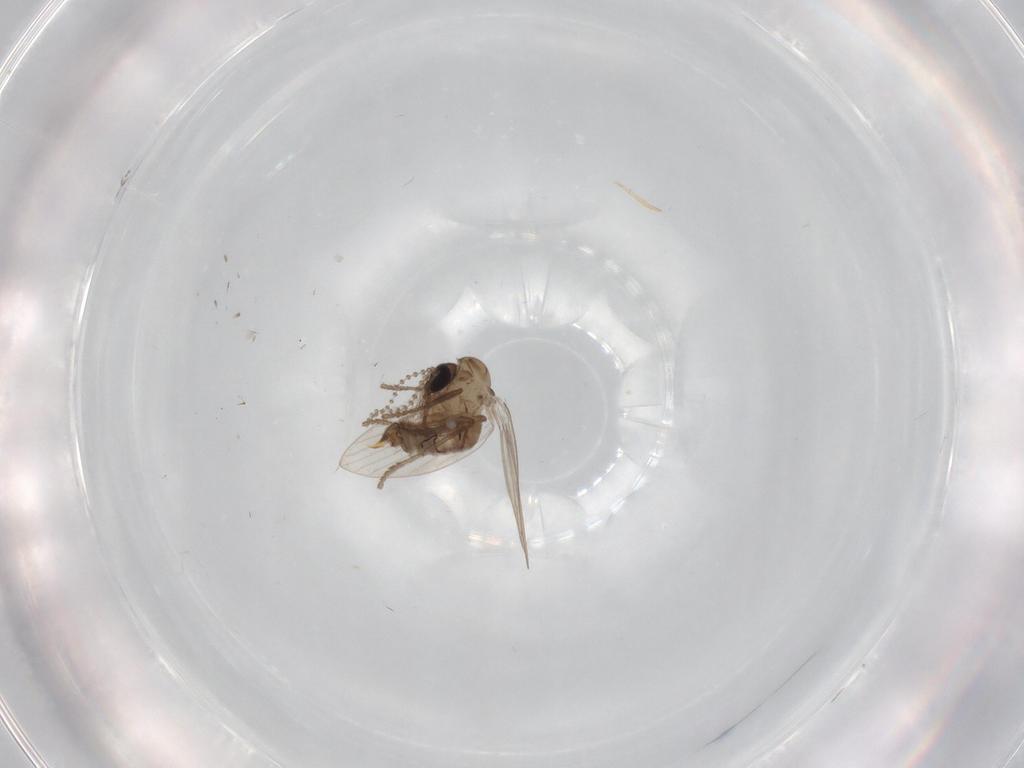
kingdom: Animalia
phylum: Arthropoda
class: Insecta
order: Diptera
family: Psychodidae
